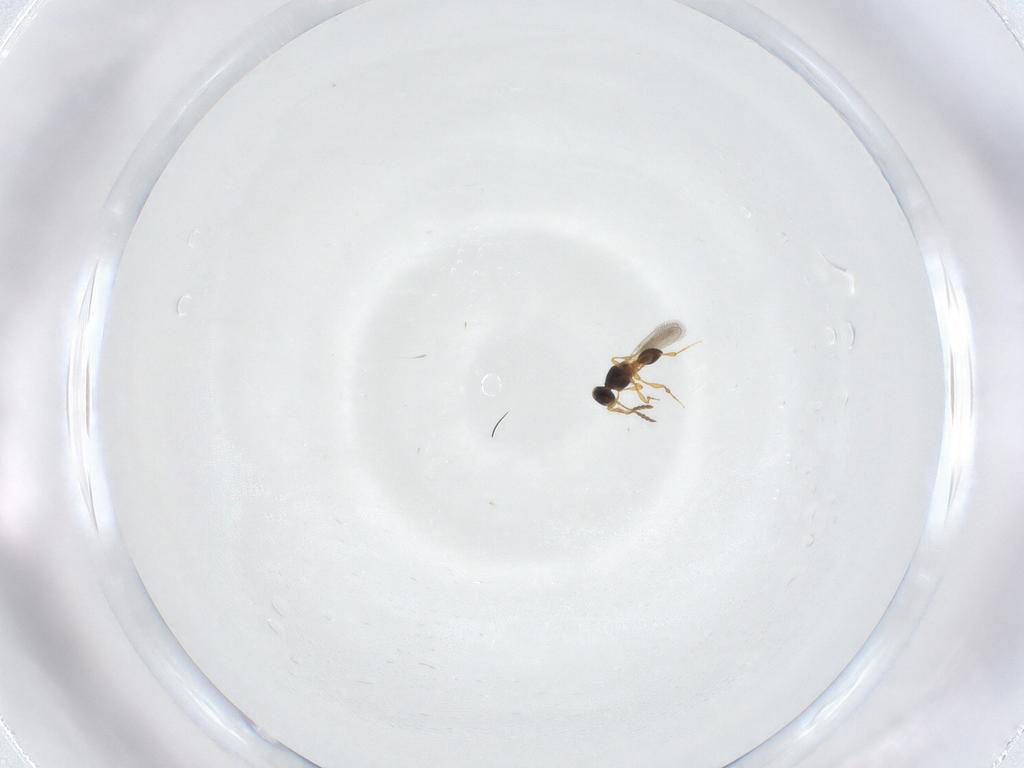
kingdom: Animalia
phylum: Arthropoda
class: Insecta
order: Hymenoptera
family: Platygastridae
